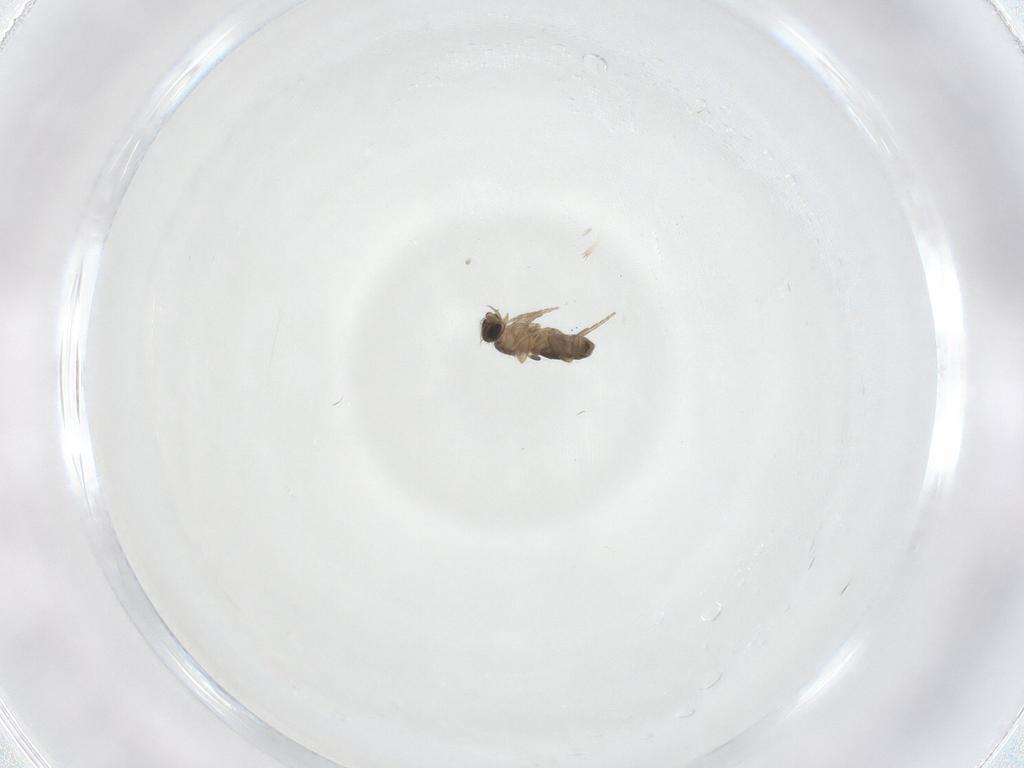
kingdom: Animalia
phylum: Arthropoda
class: Insecta
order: Diptera
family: Phoridae
